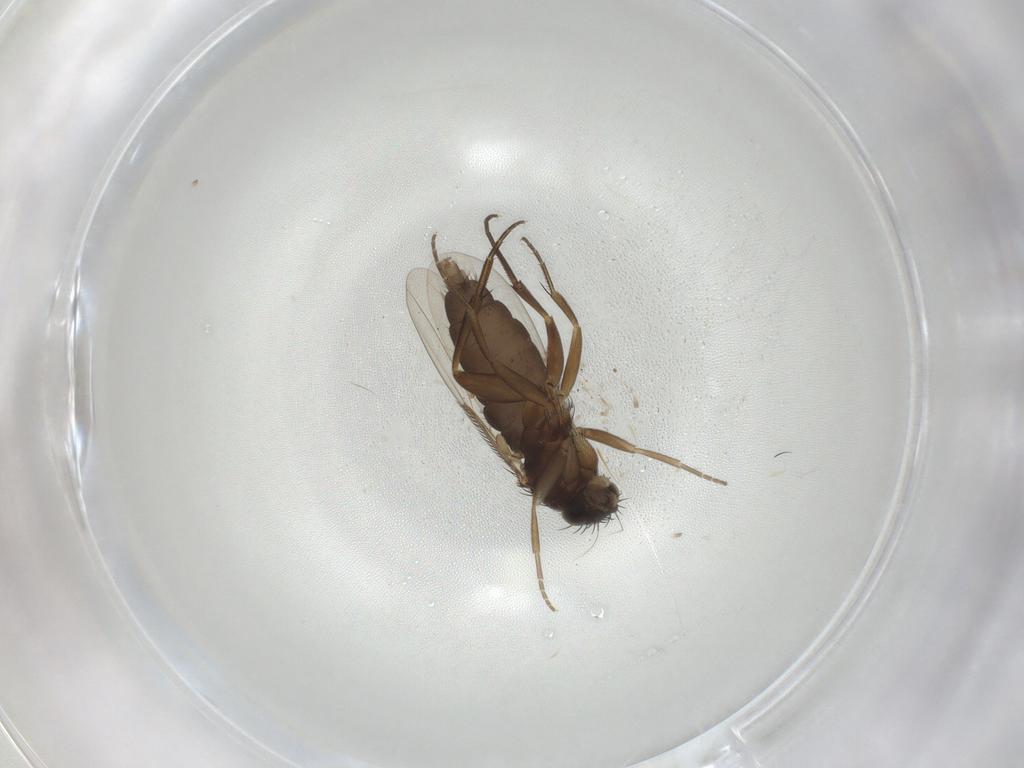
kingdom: Animalia
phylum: Arthropoda
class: Insecta
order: Diptera
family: Phoridae
